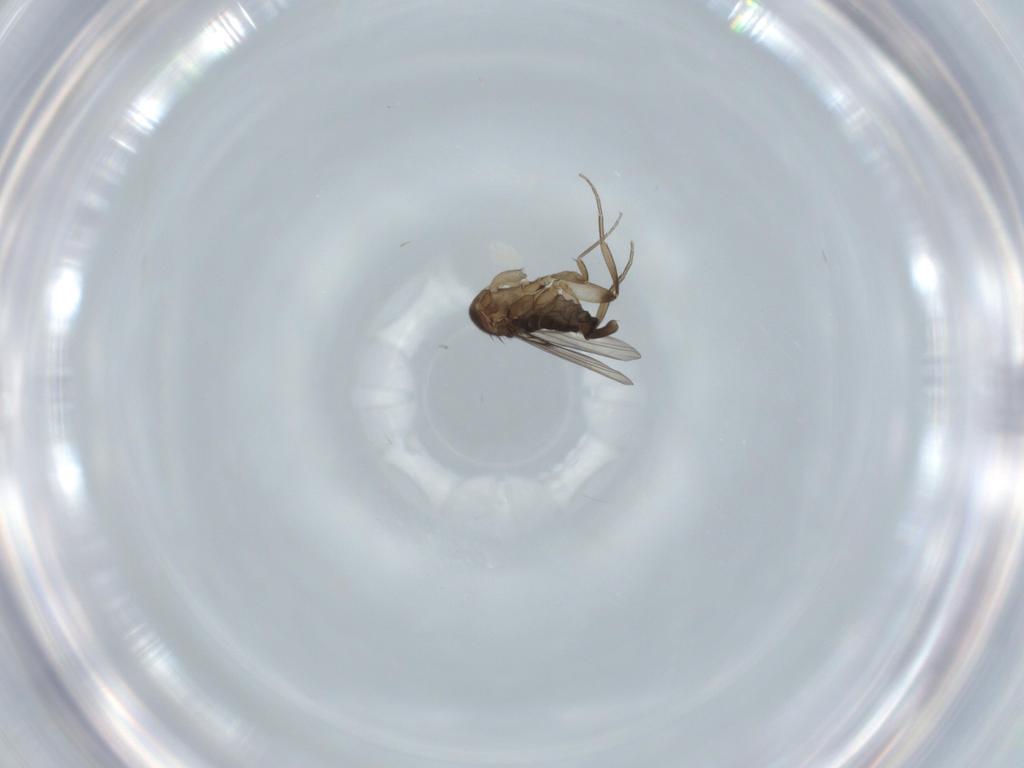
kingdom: Animalia
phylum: Arthropoda
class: Insecta
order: Diptera
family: Phoridae
